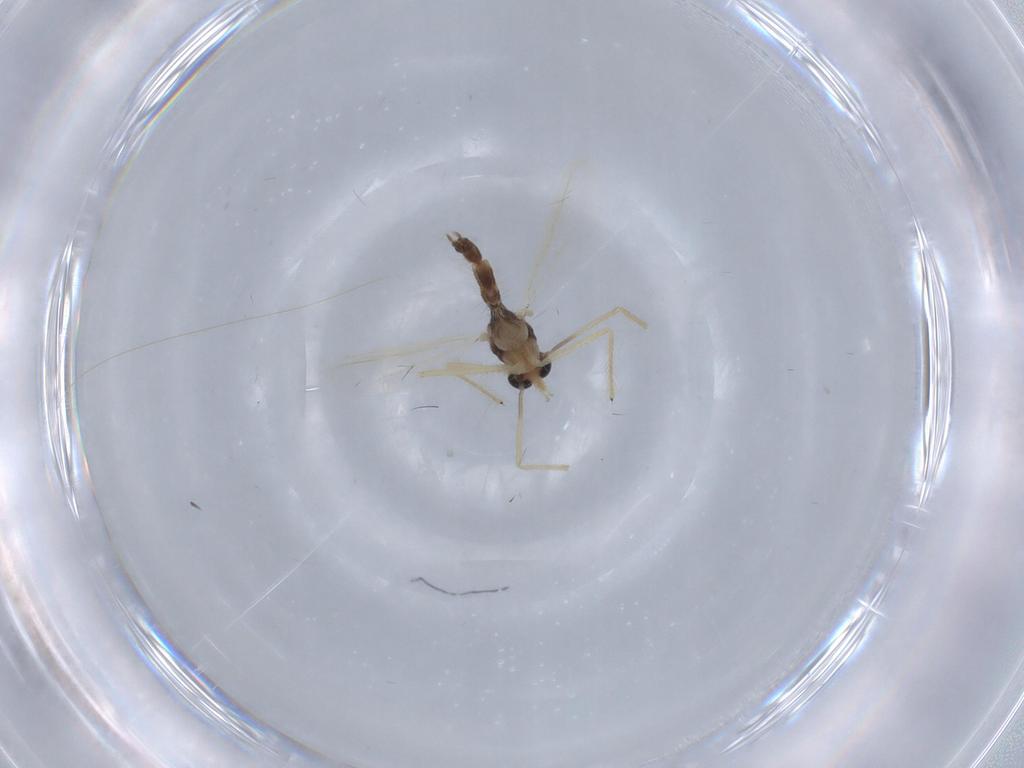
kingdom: Animalia
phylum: Arthropoda
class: Insecta
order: Diptera
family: Chironomidae
